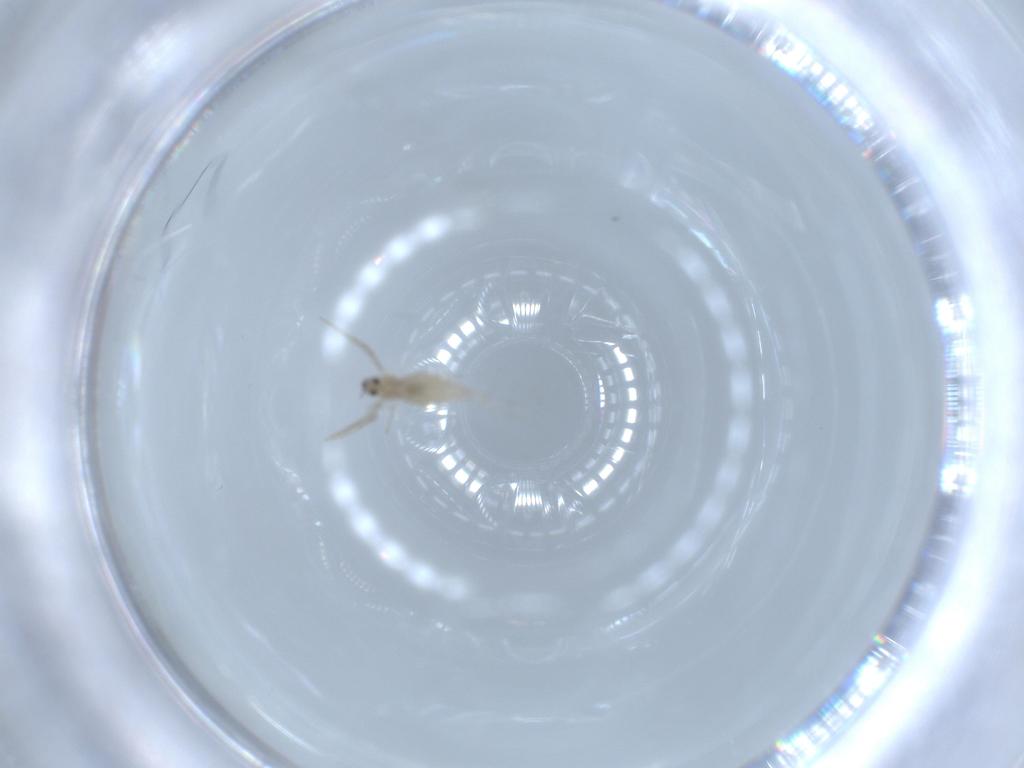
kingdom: Animalia
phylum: Arthropoda
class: Insecta
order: Diptera
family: Cecidomyiidae
